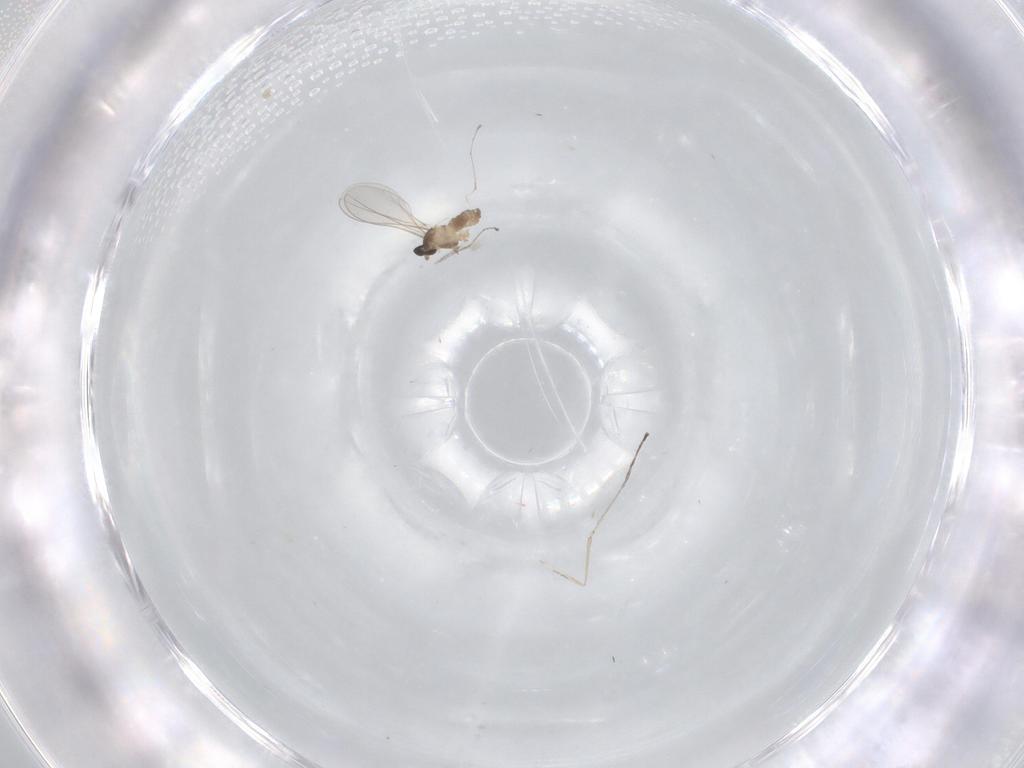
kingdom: Animalia
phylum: Arthropoda
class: Insecta
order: Diptera
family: Cecidomyiidae
